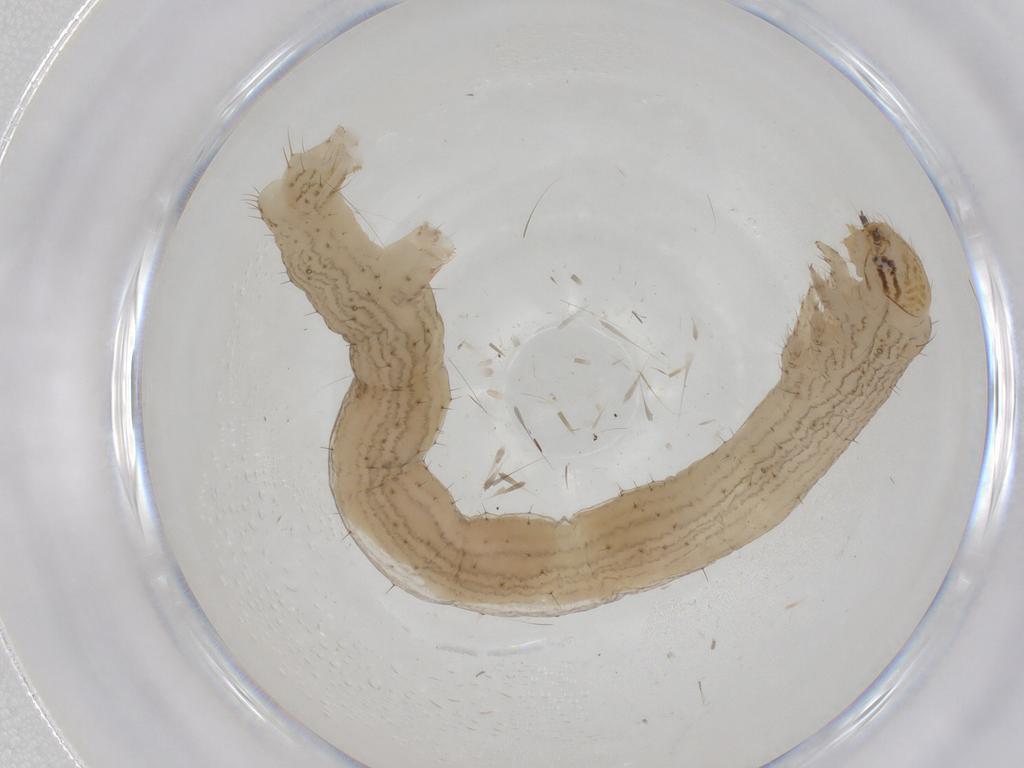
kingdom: Animalia
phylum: Arthropoda
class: Insecta
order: Lepidoptera
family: Geometridae
